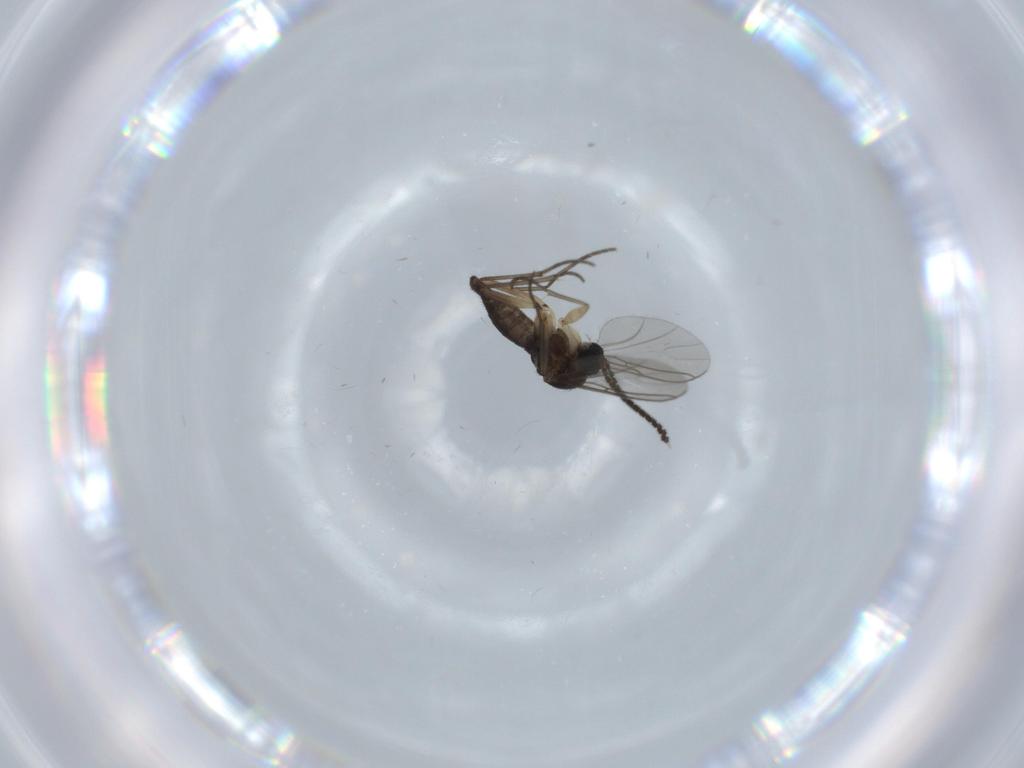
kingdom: Animalia
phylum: Arthropoda
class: Insecta
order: Diptera
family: Sciaridae
